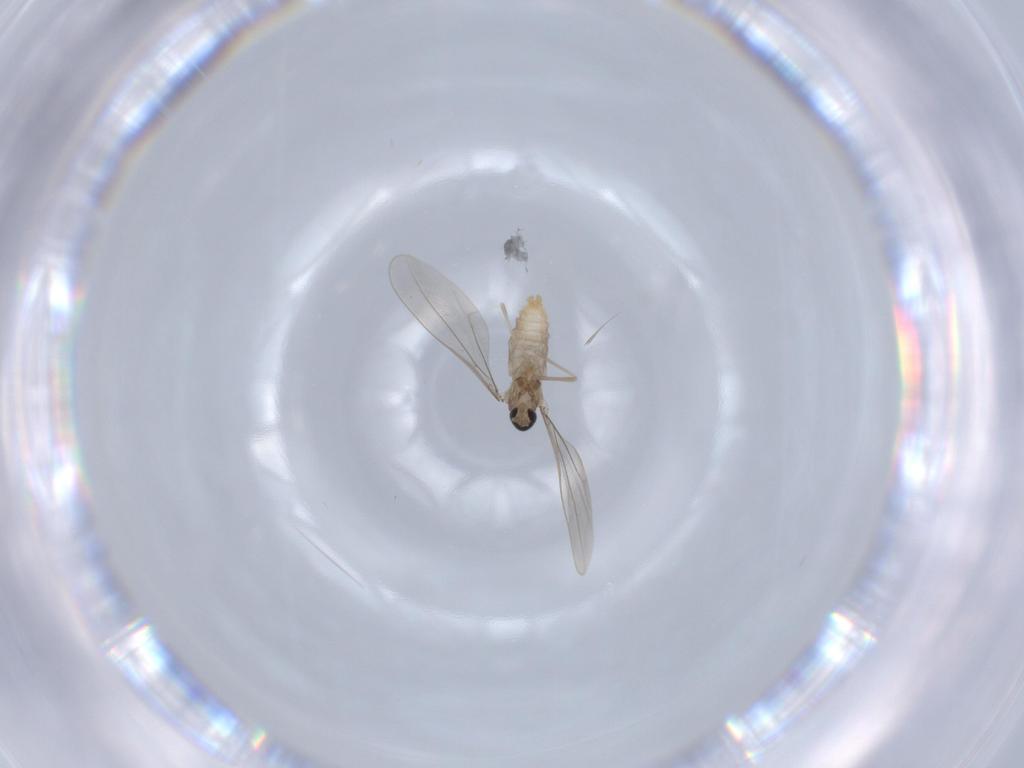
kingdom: Animalia
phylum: Arthropoda
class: Insecta
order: Diptera
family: Cecidomyiidae
